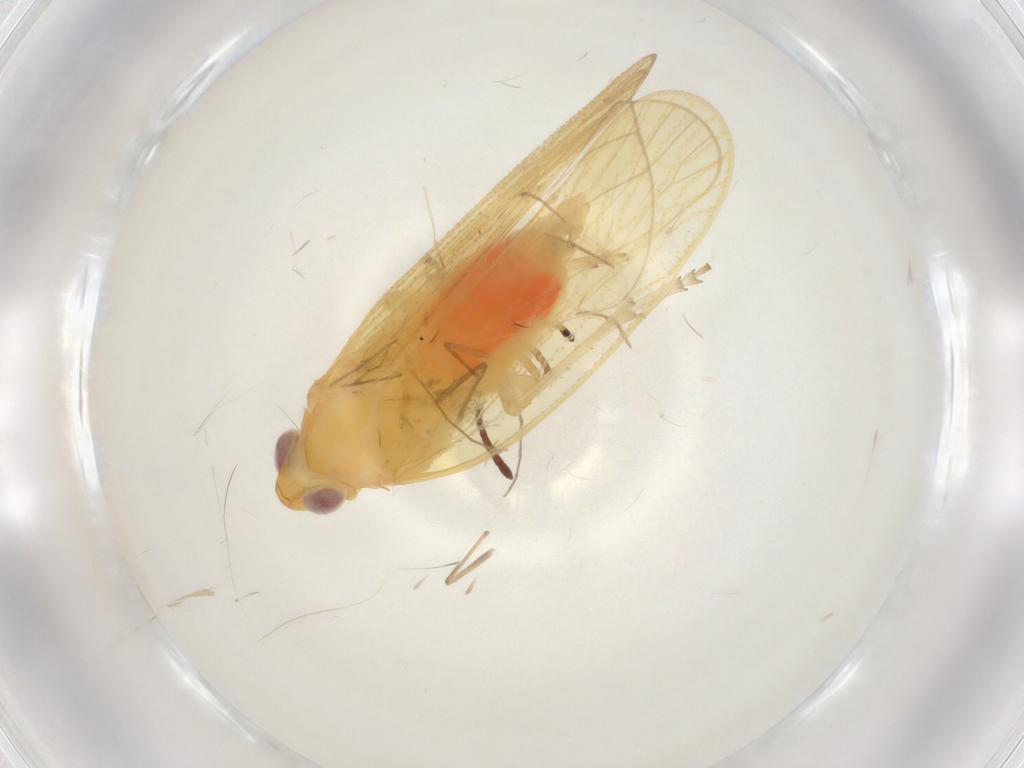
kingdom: Animalia
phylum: Arthropoda
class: Insecta
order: Hemiptera
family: Cixiidae
